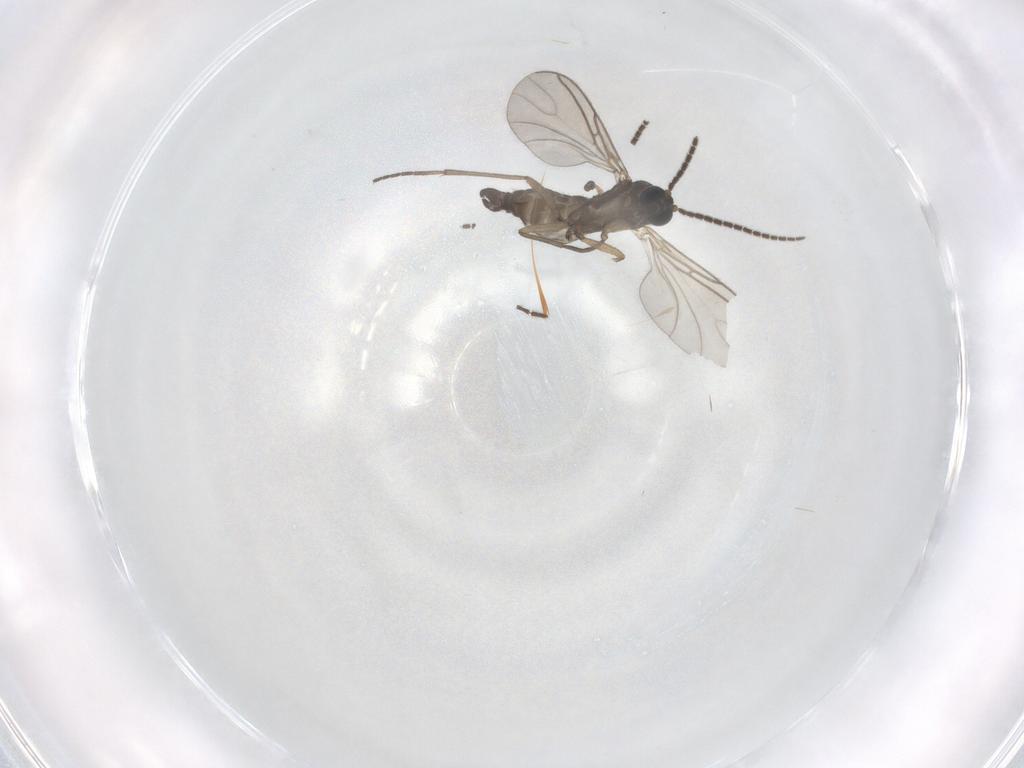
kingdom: Animalia
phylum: Arthropoda
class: Insecta
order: Diptera
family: Sciaridae
